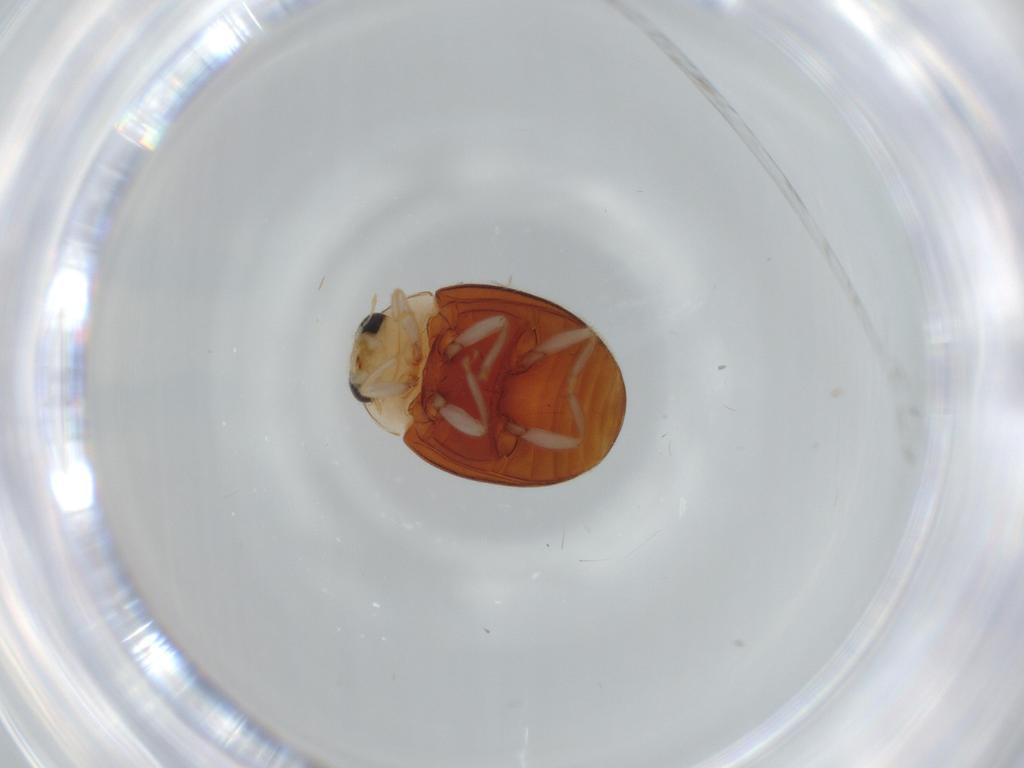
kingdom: Animalia
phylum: Arthropoda
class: Insecta
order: Coleoptera
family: Coccinellidae
